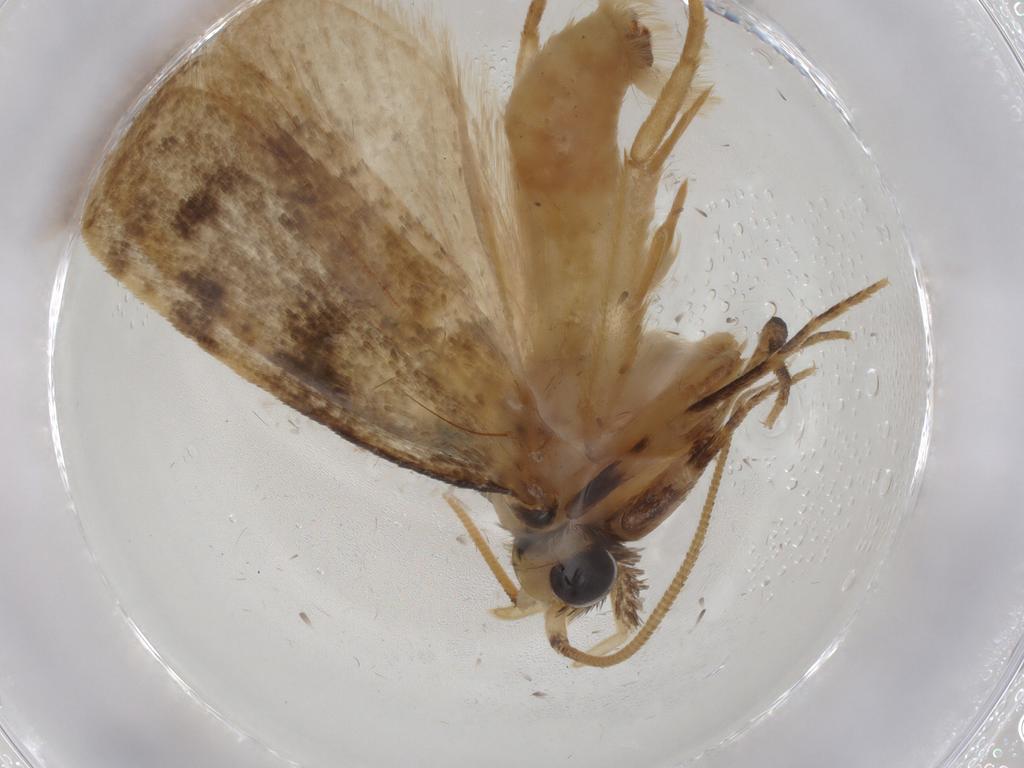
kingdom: Animalia
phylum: Arthropoda
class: Insecta
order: Lepidoptera
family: Tineidae
